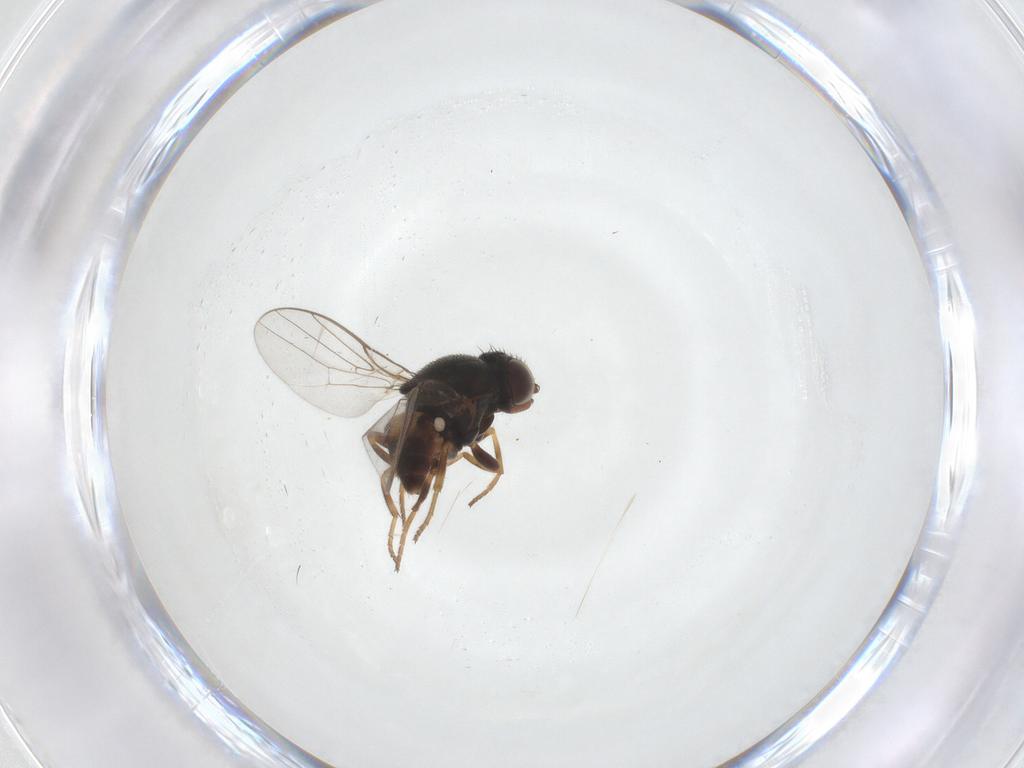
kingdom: Animalia
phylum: Arthropoda
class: Insecta
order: Diptera
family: Chloropidae
